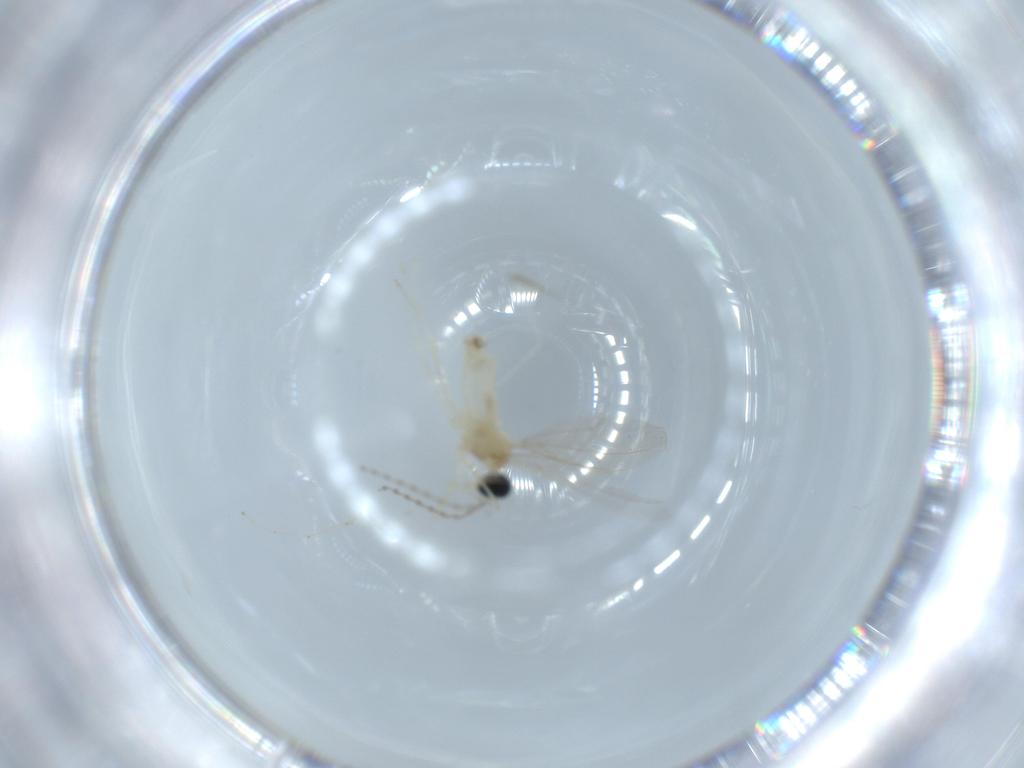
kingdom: Animalia
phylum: Arthropoda
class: Insecta
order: Diptera
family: Cecidomyiidae
